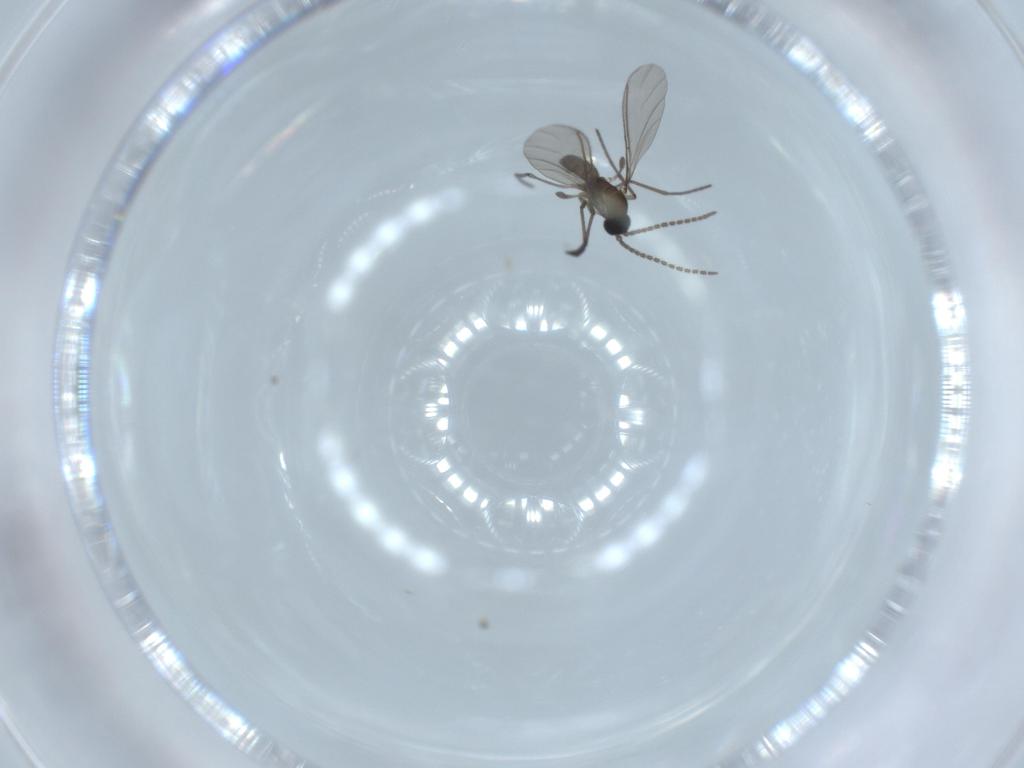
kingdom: Animalia
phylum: Arthropoda
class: Insecta
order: Diptera
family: Sciaridae
